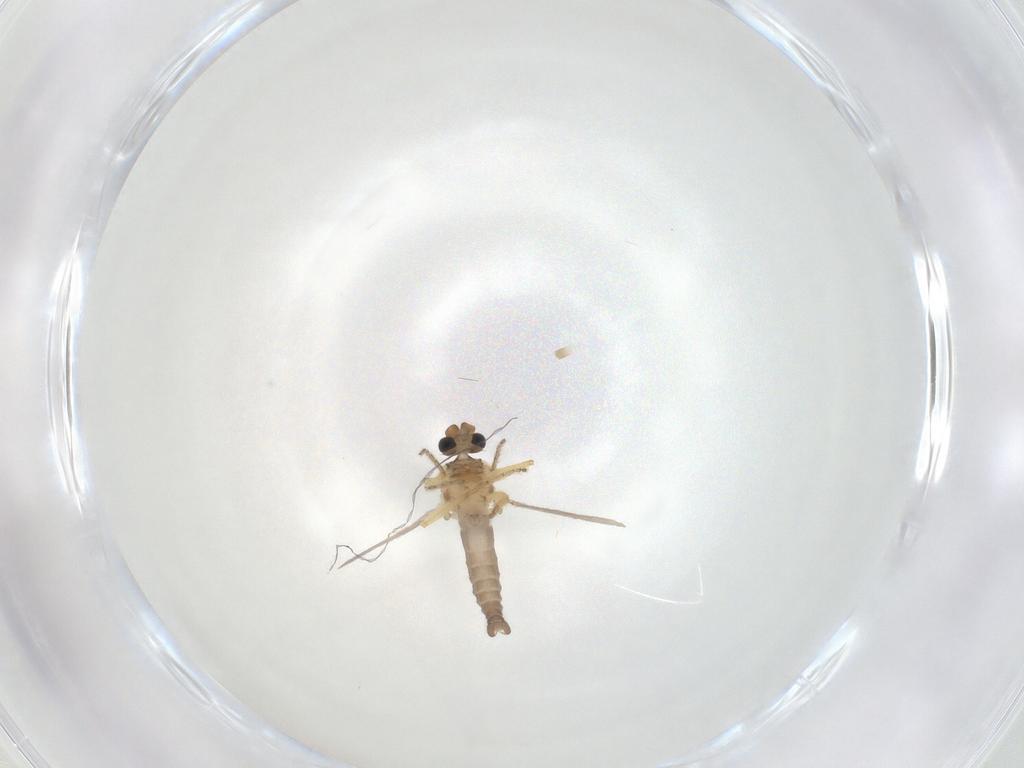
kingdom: Animalia
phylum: Arthropoda
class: Insecta
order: Diptera
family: Ceratopogonidae
